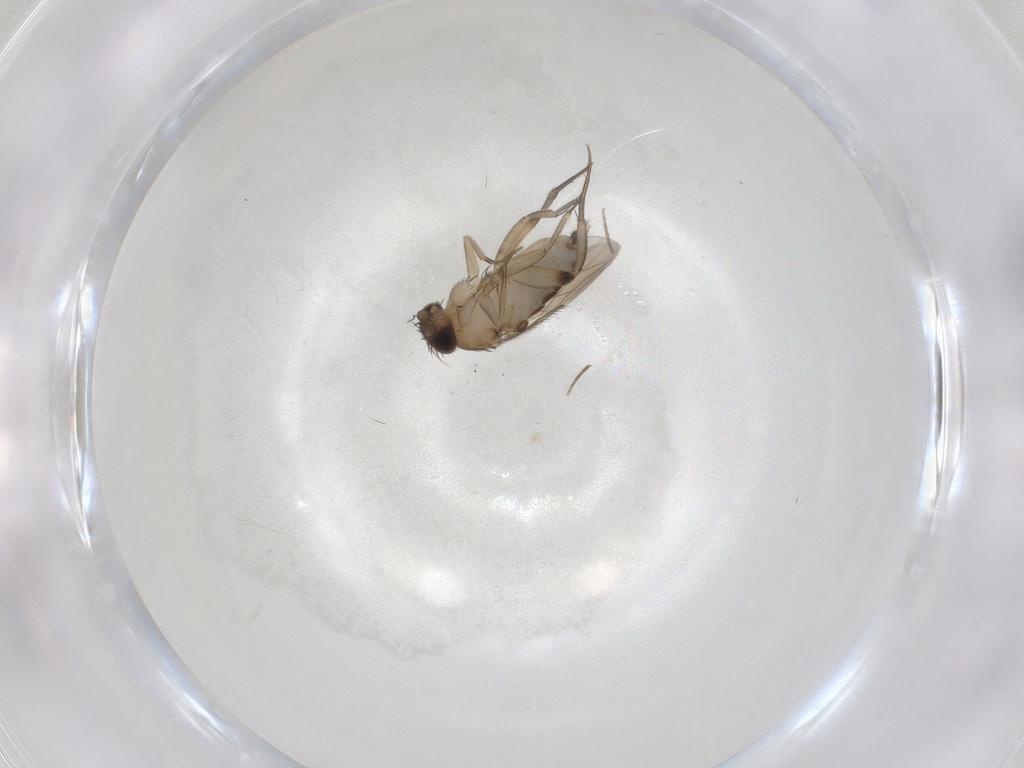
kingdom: Animalia
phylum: Arthropoda
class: Insecta
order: Diptera
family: Phoridae
